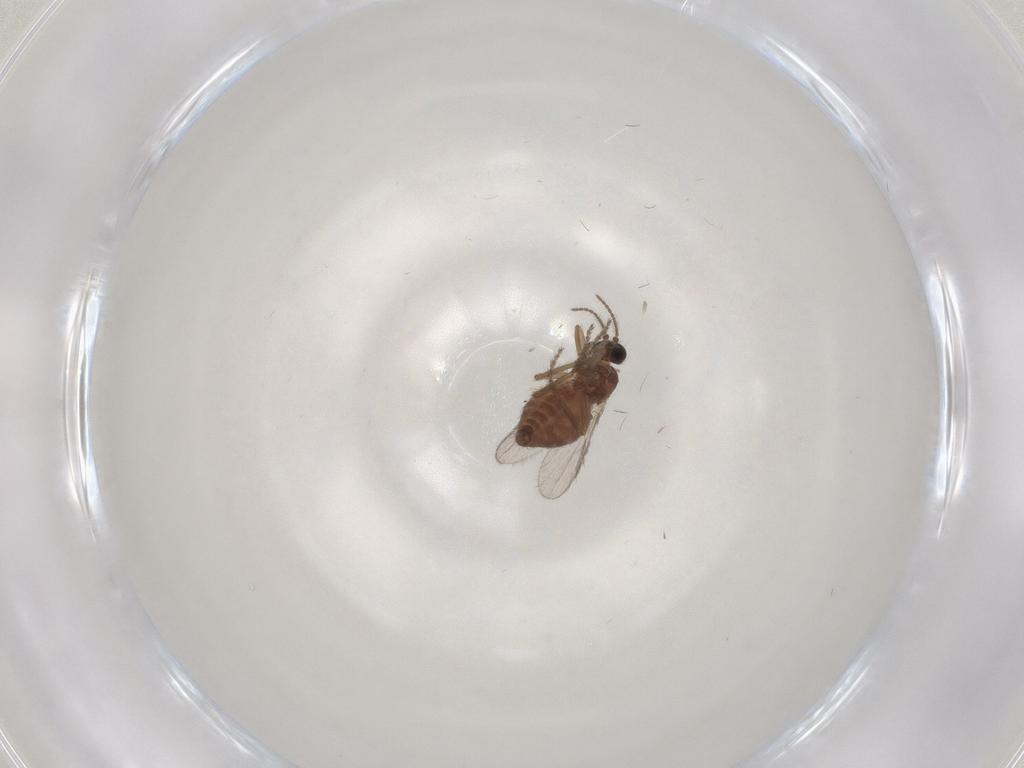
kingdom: Animalia
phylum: Arthropoda
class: Insecta
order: Diptera
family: Ceratopogonidae
